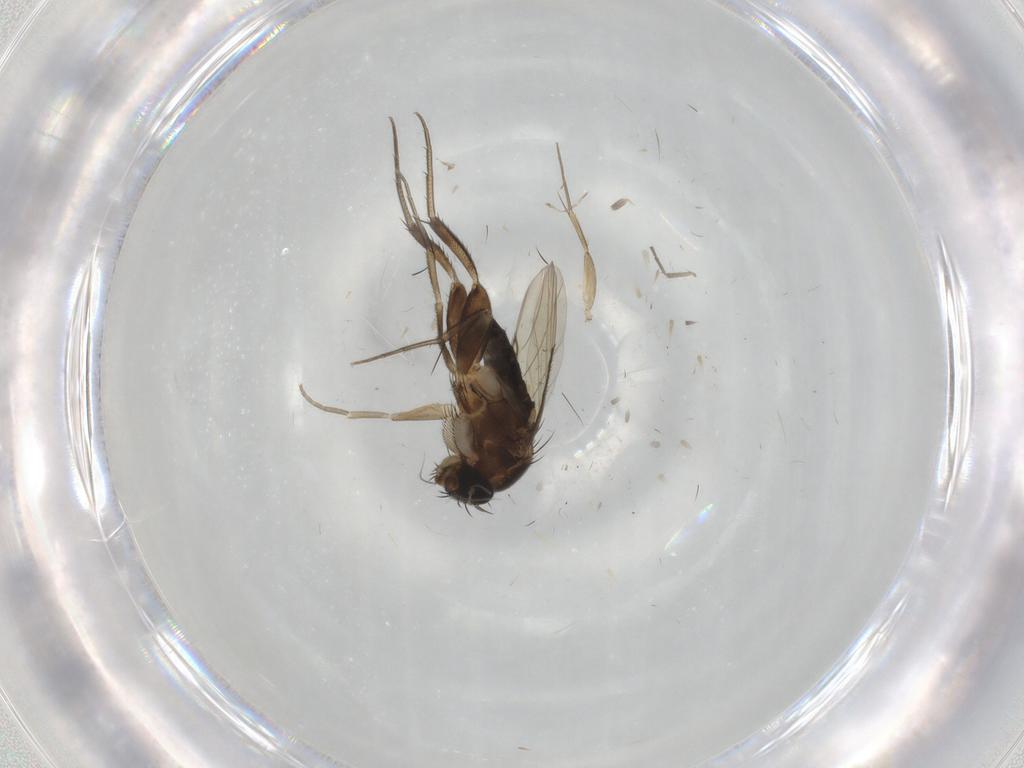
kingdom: Animalia
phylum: Arthropoda
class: Insecta
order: Diptera
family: Phoridae
